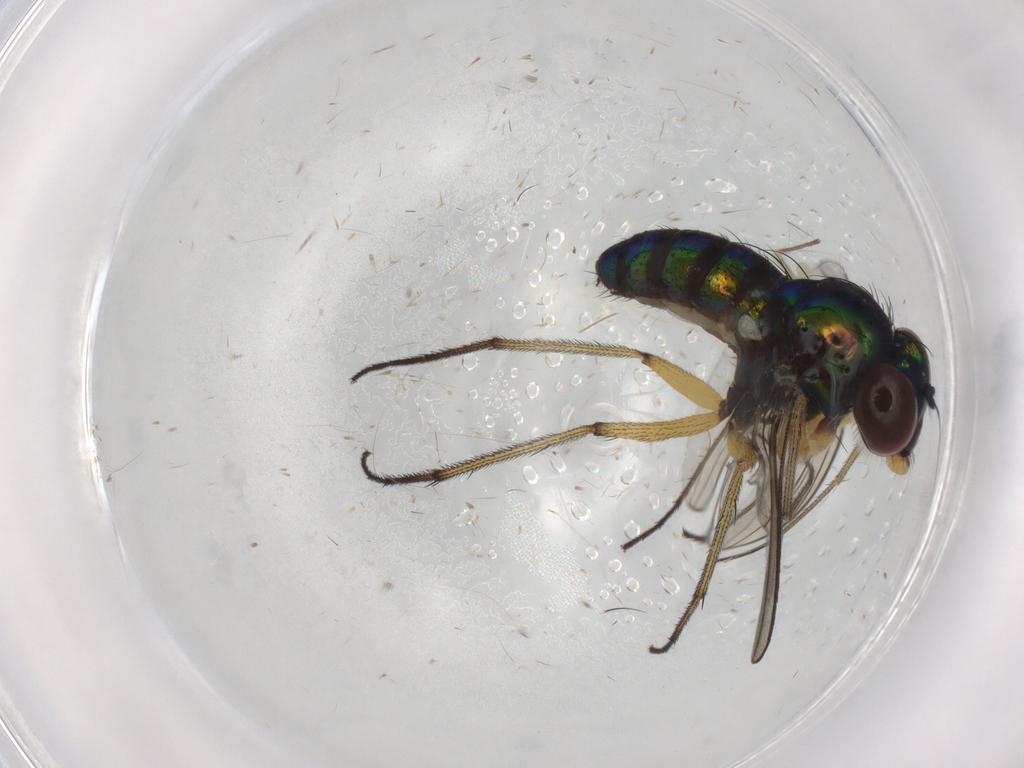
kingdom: Animalia
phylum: Arthropoda
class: Insecta
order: Diptera
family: Dolichopodidae
